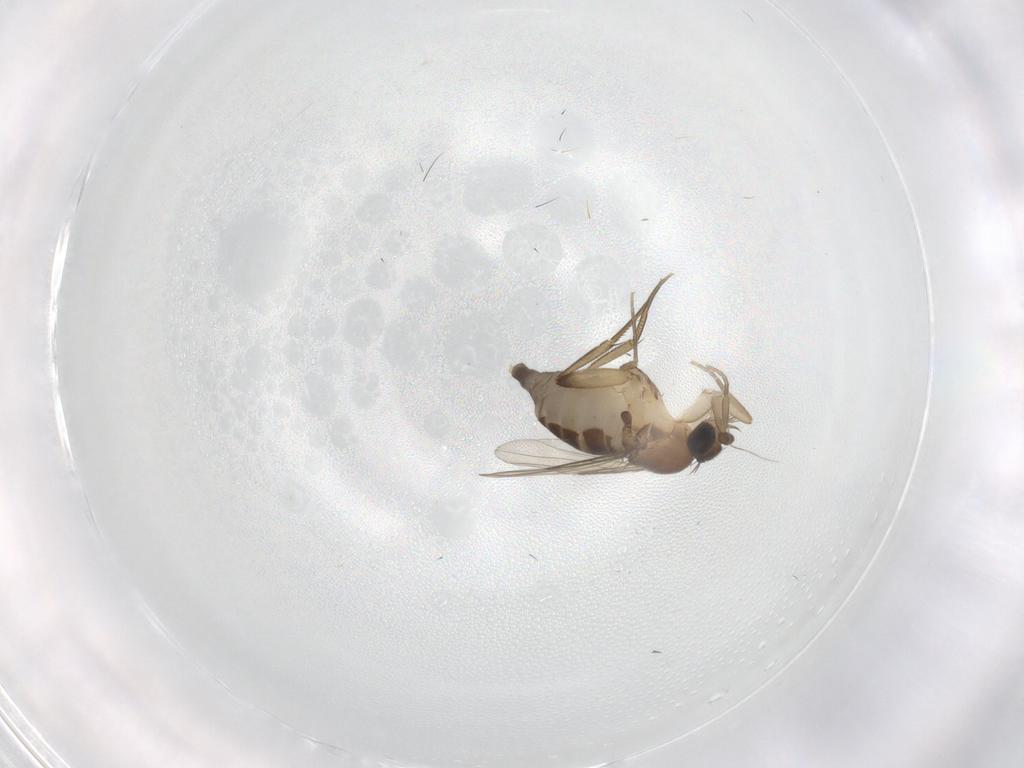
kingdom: Animalia
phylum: Arthropoda
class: Insecta
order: Diptera
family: Phoridae
